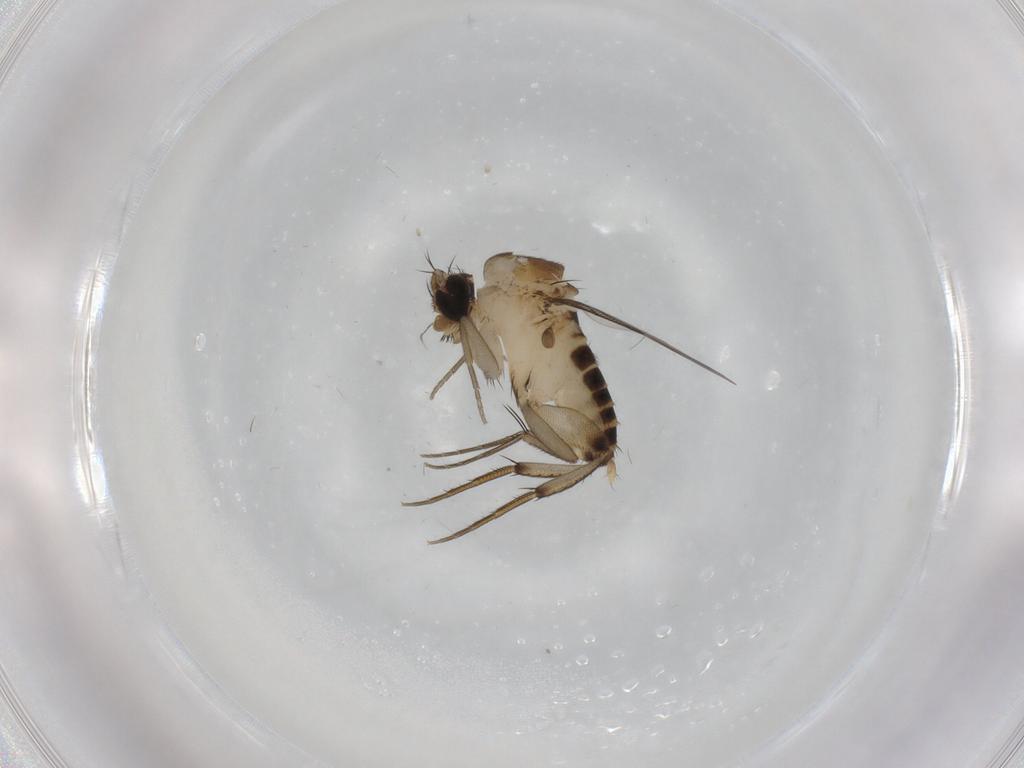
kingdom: Animalia
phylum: Arthropoda
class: Insecta
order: Diptera
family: Phoridae
